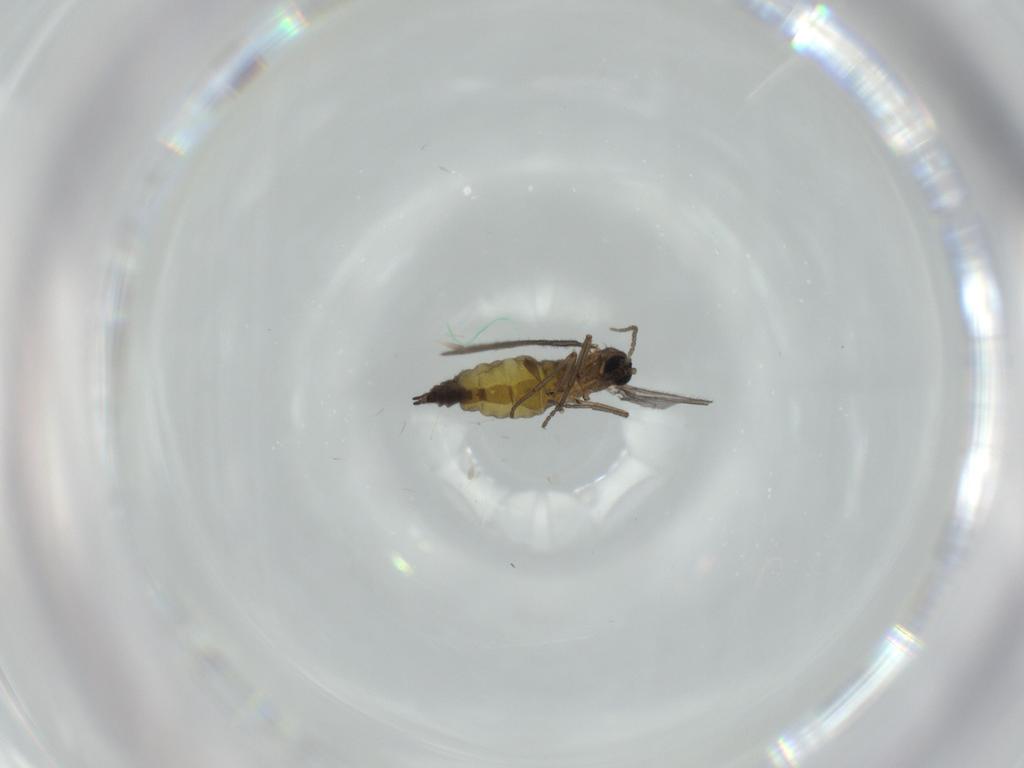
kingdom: Animalia
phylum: Arthropoda
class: Insecta
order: Diptera
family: Sciaridae
